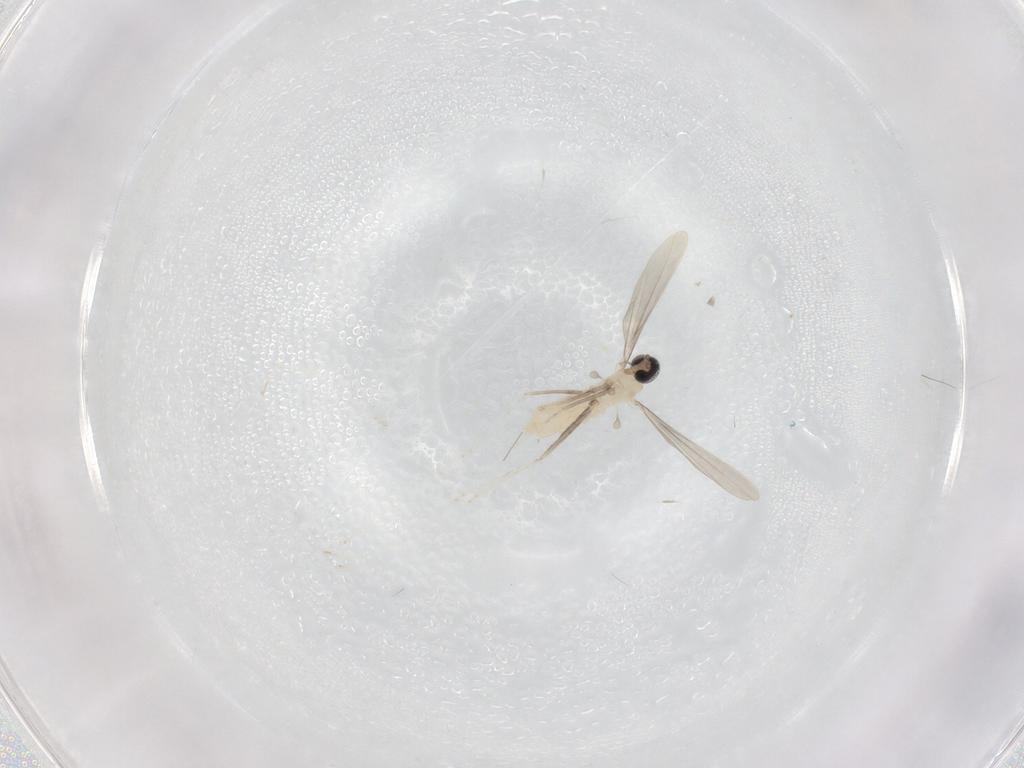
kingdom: Animalia
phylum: Arthropoda
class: Insecta
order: Diptera
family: Cecidomyiidae
